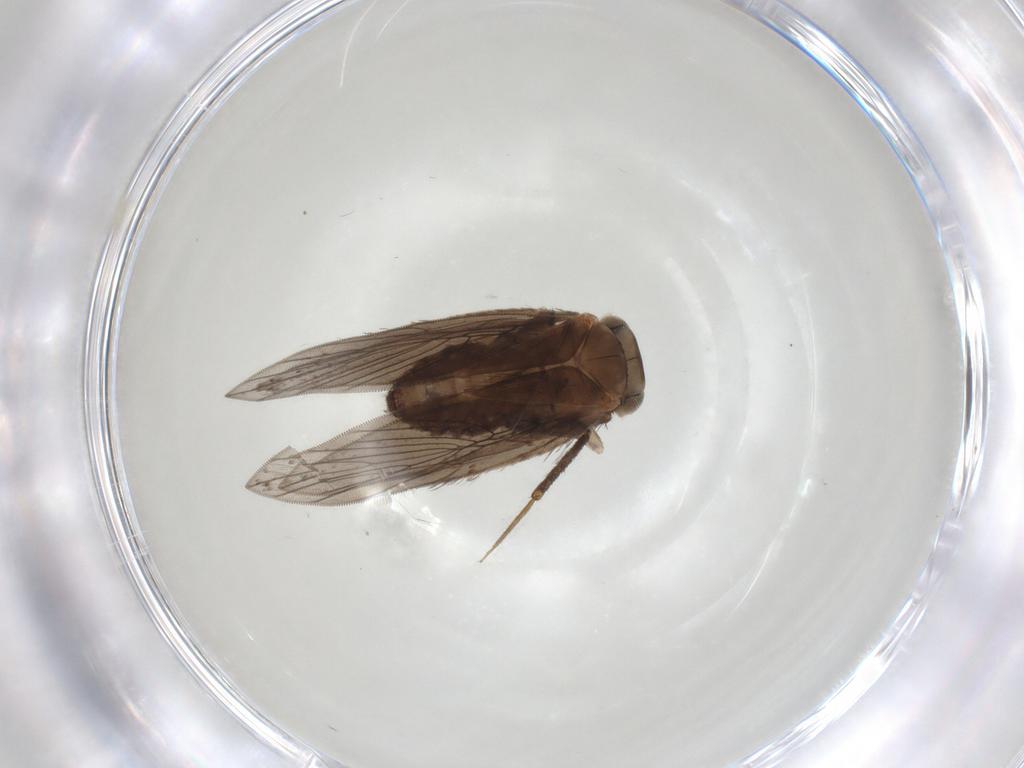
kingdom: Animalia
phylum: Arthropoda
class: Insecta
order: Psocodea
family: Lepidopsocidae
